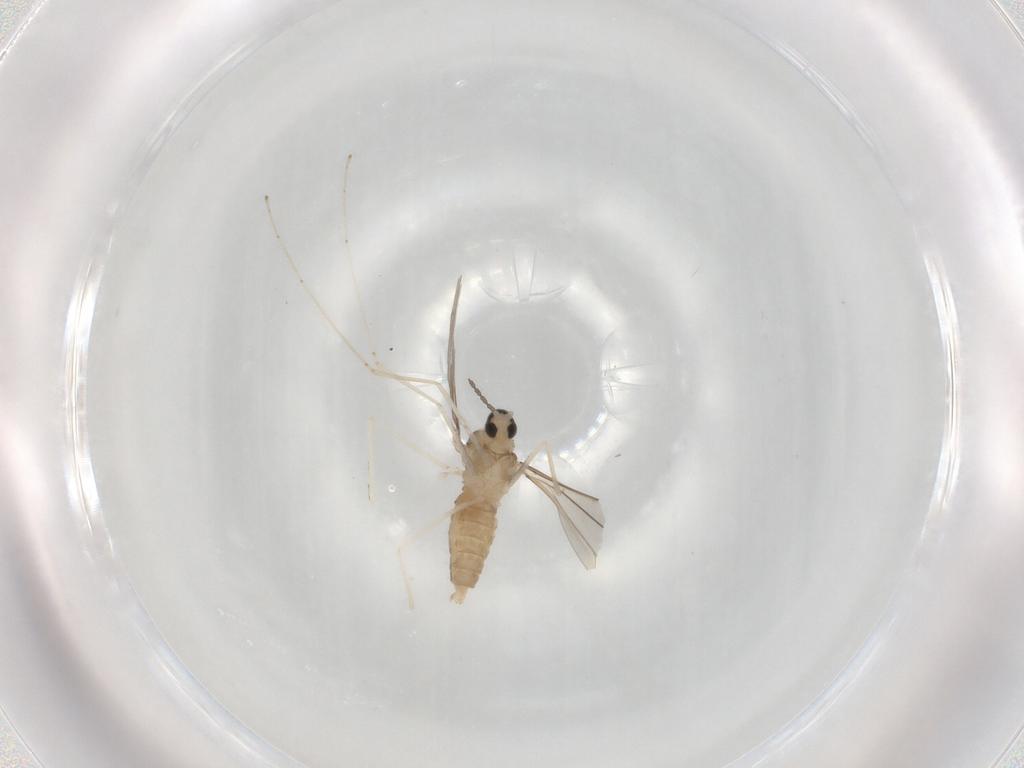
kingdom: Animalia
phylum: Arthropoda
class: Insecta
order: Diptera
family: Cecidomyiidae
